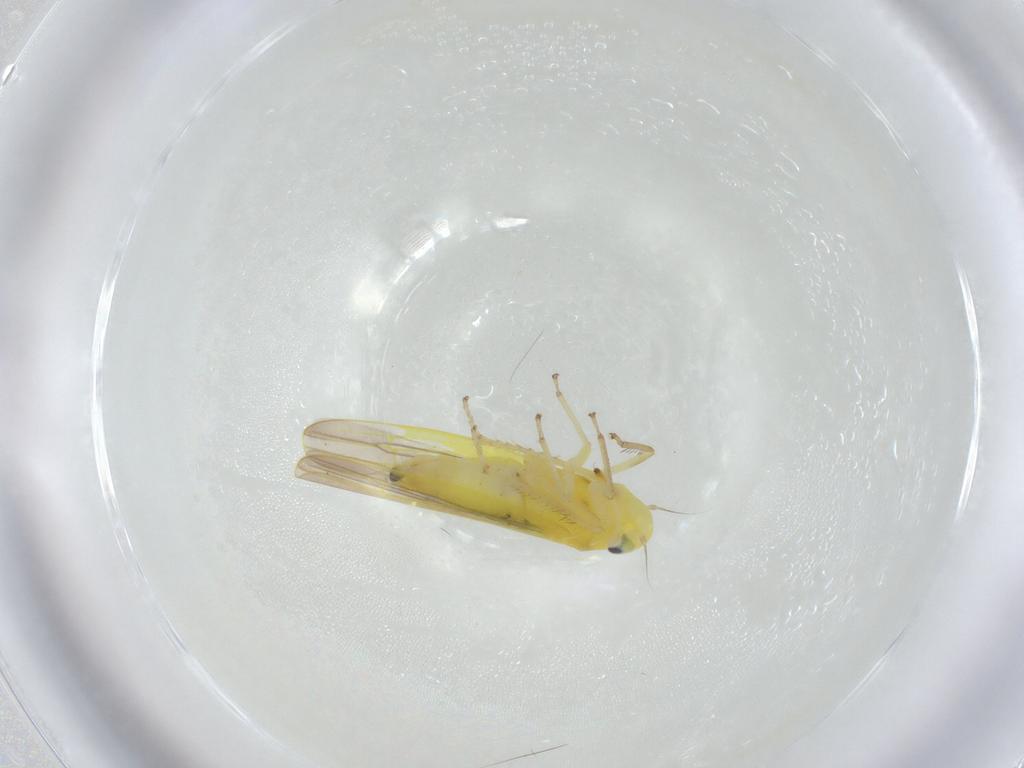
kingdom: Animalia
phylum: Arthropoda
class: Insecta
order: Hemiptera
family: Cicadellidae
